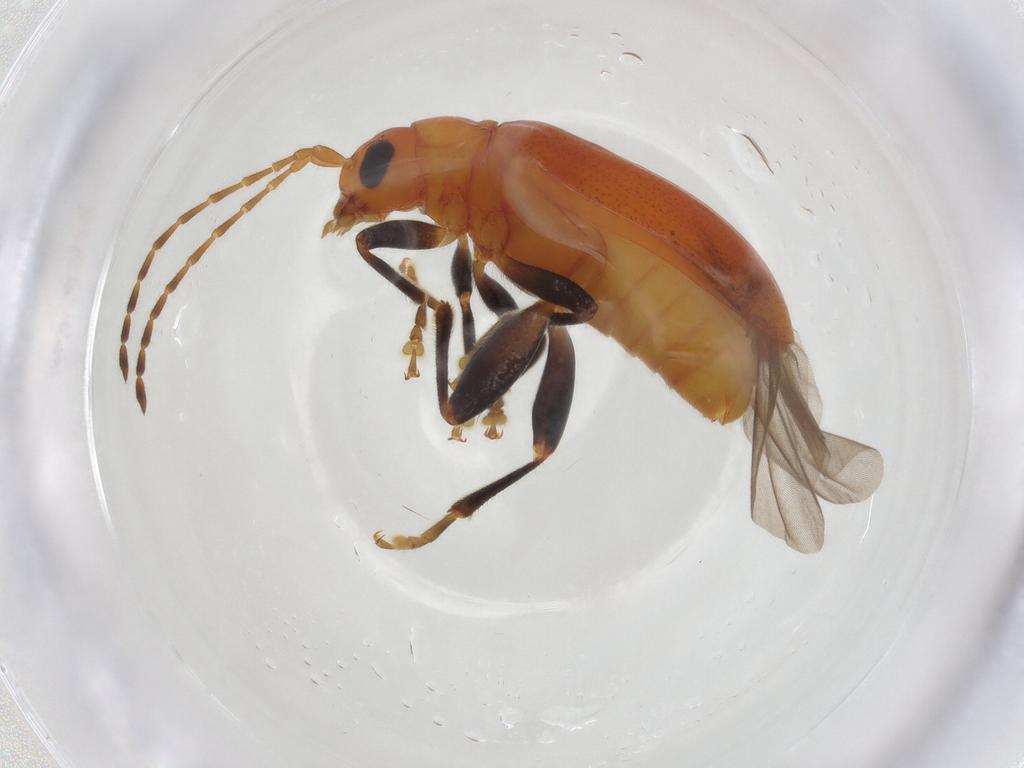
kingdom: Animalia
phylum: Arthropoda
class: Insecta
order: Coleoptera
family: Chrysomelidae
